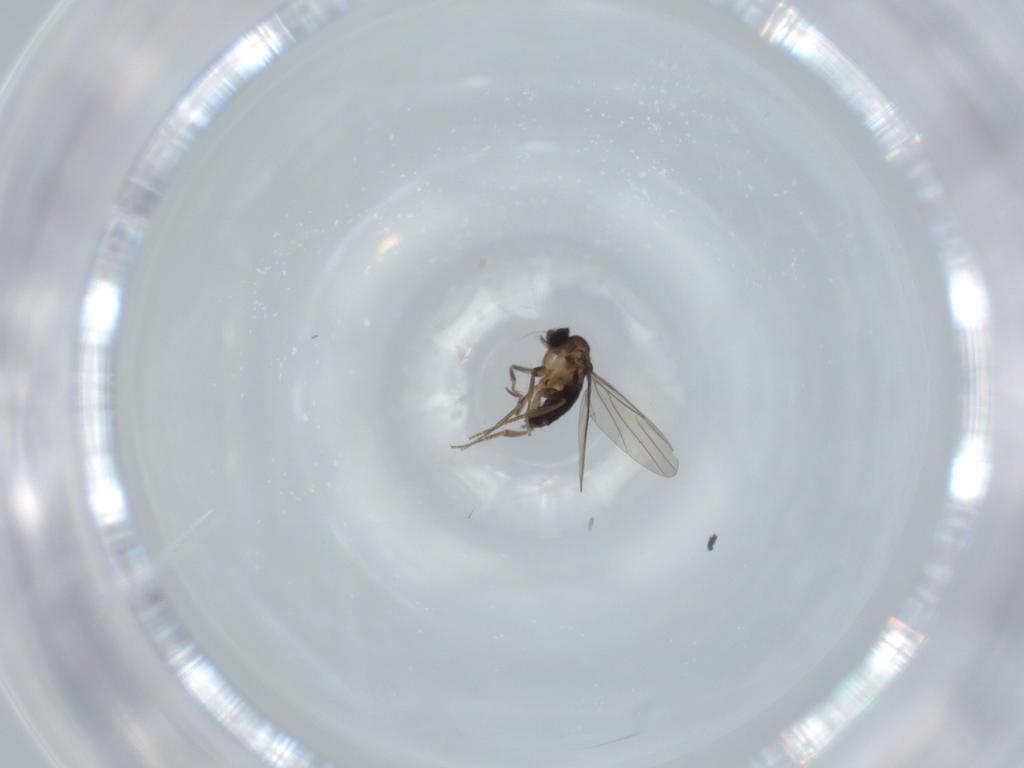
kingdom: Animalia
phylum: Arthropoda
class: Insecta
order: Diptera
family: Phoridae
